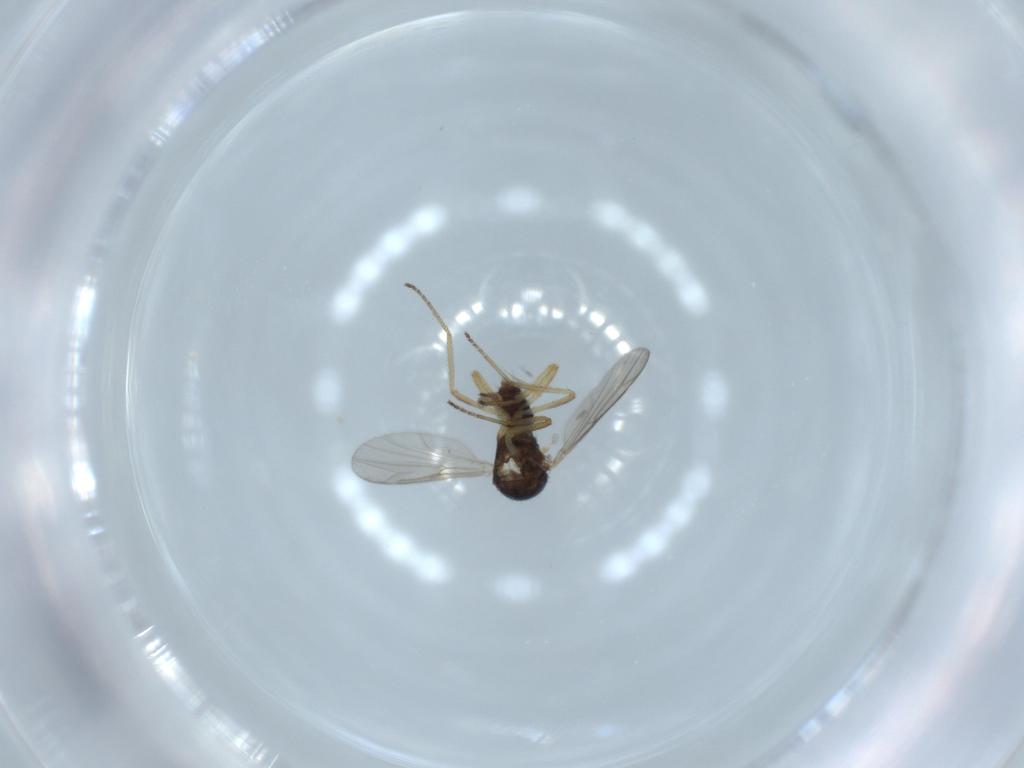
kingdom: Animalia
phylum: Arthropoda
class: Insecta
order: Diptera
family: Ceratopogonidae
